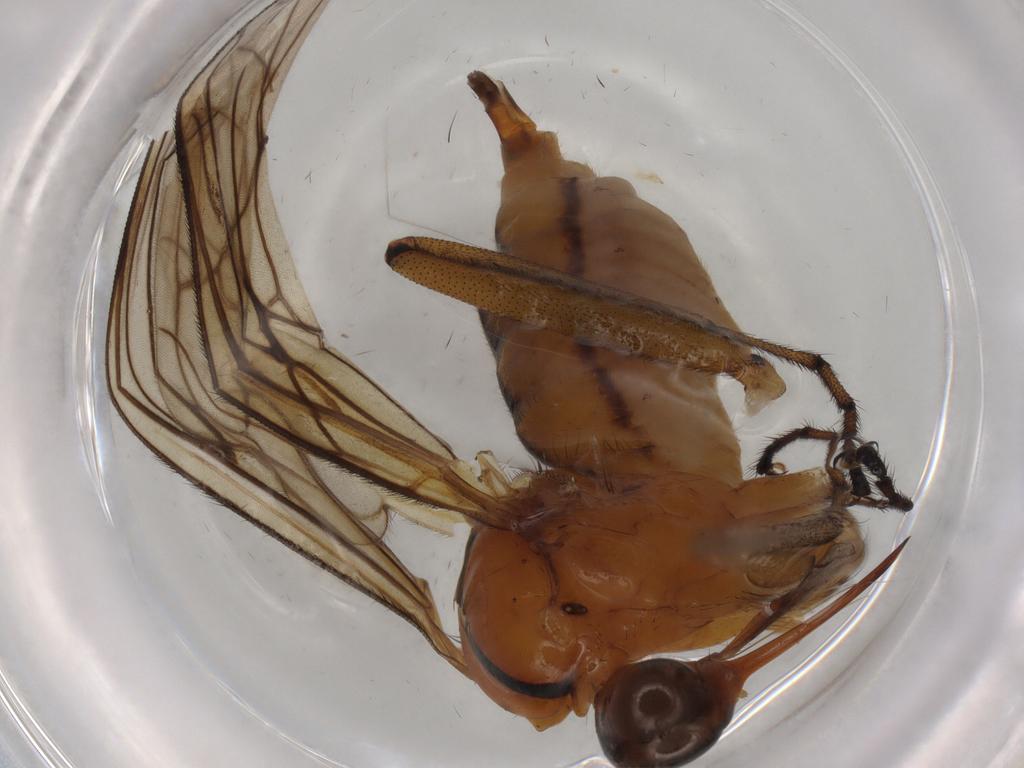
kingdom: Animalia
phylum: Arthropoda
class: Insecta
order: Diptera
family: Empididae
